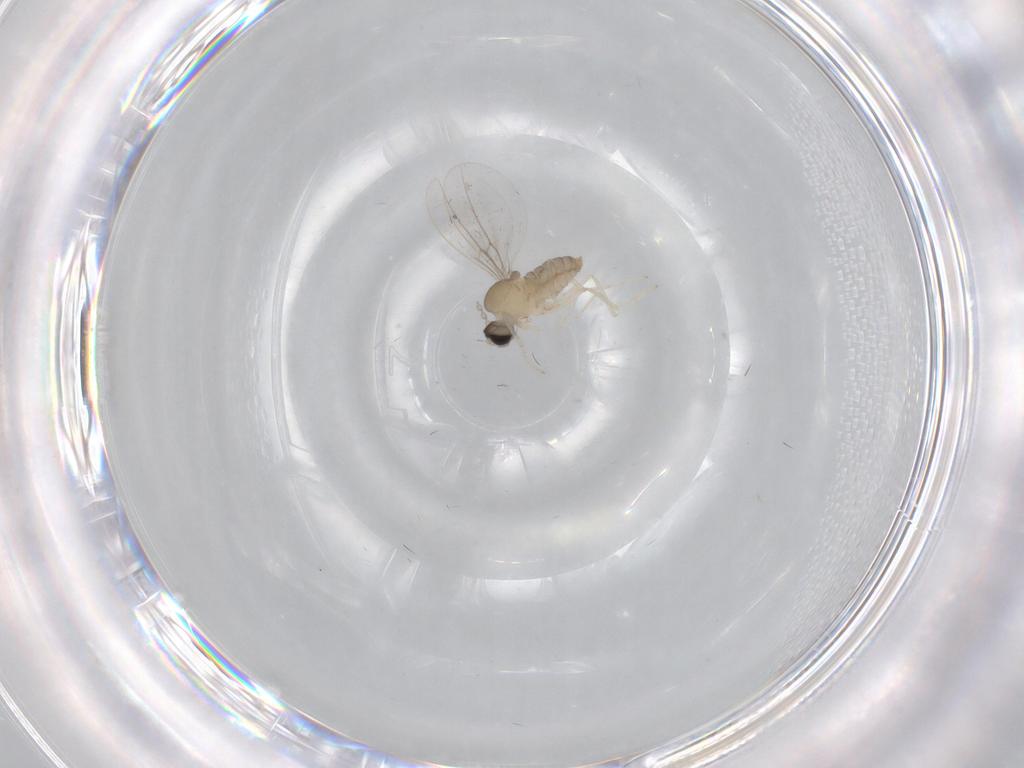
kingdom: Animalia
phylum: Arthropoda
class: Insecta
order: Diptera
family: Cecidomyiidae
